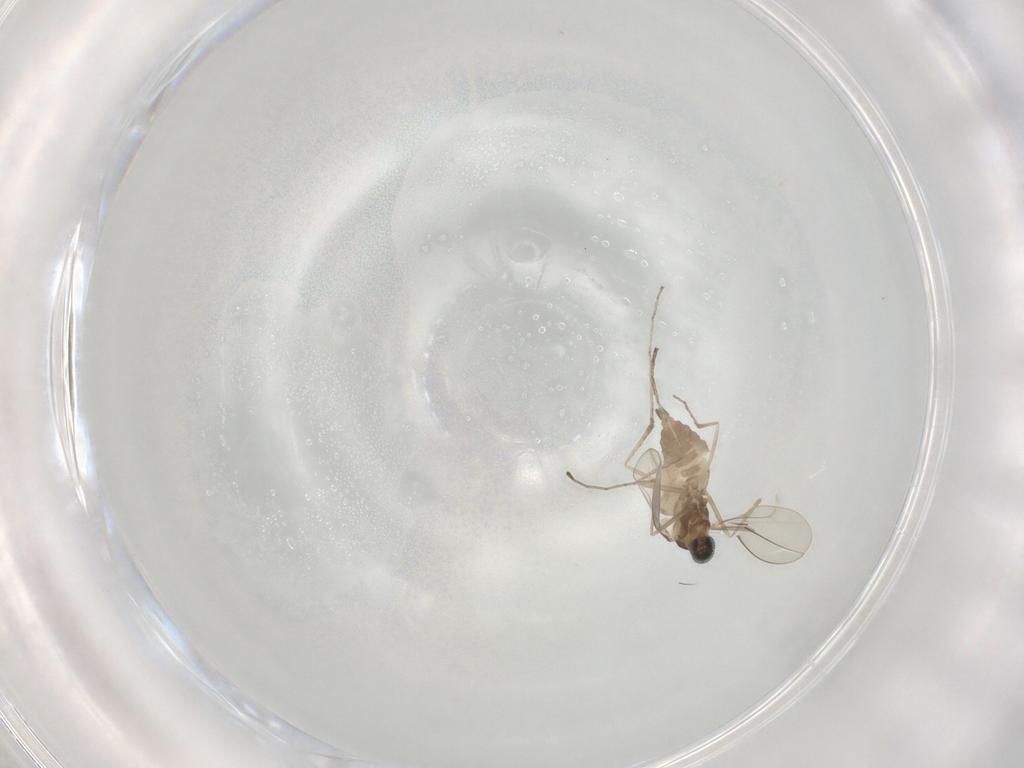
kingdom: Animalia
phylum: Arthropoda
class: Insecta
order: Diptera
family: Cecidomyiidae
